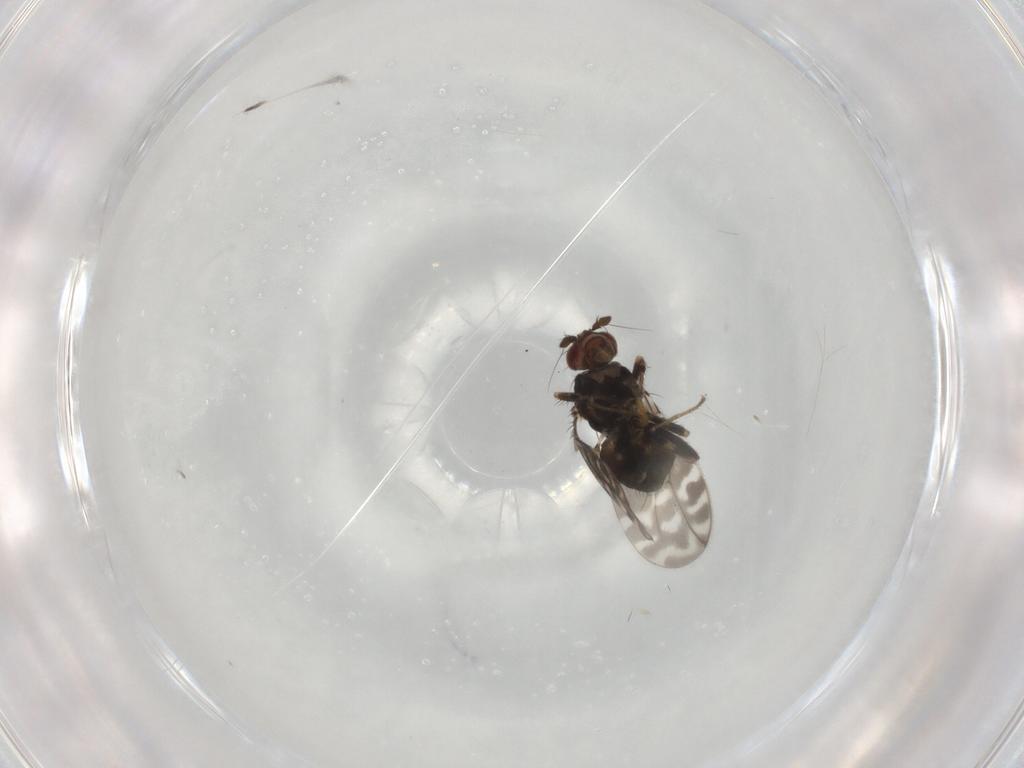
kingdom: Animalia
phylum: Arthropoda
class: Insecta
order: Diptera
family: Sphaeroceridae
